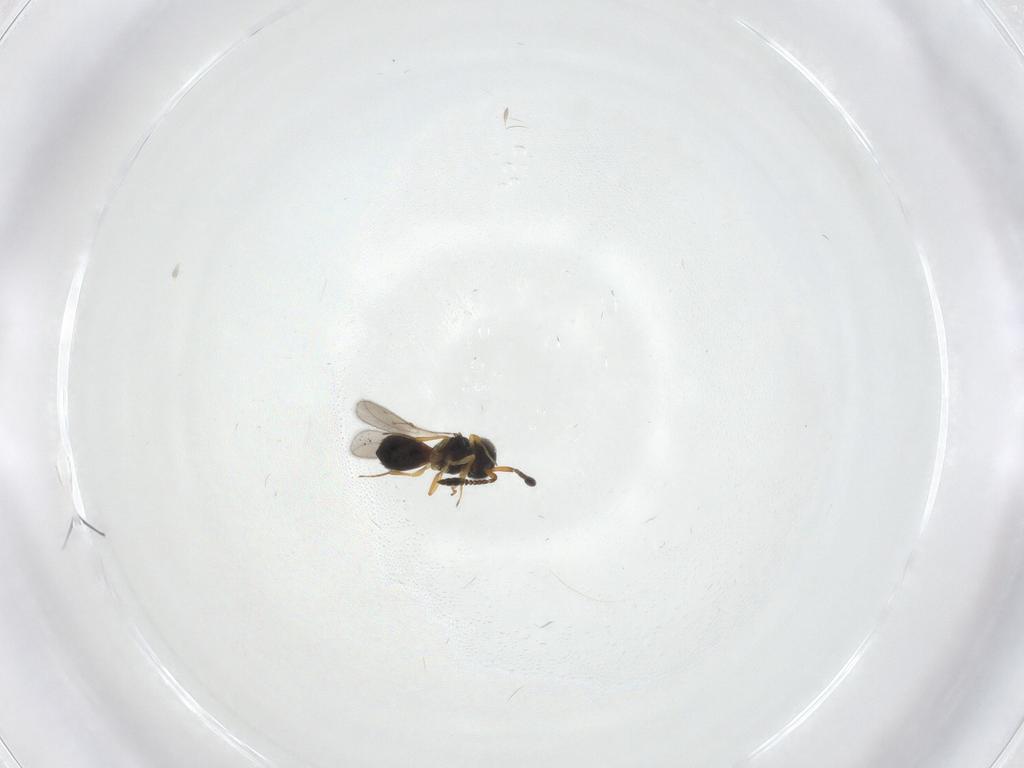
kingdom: Animalia
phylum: Arthropoda
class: Insecta
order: Hymenoptera
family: Scelionidae
